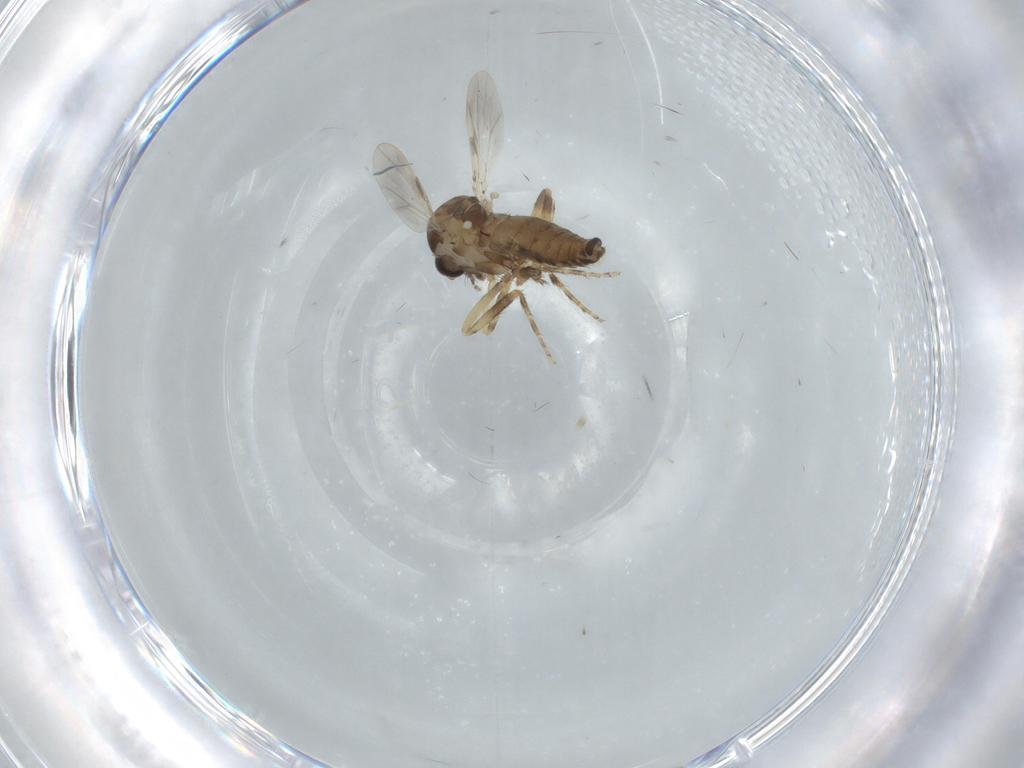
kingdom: Animalia
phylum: Arthropoda
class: Insecta
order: Diptera
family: Ceratopogonidae
